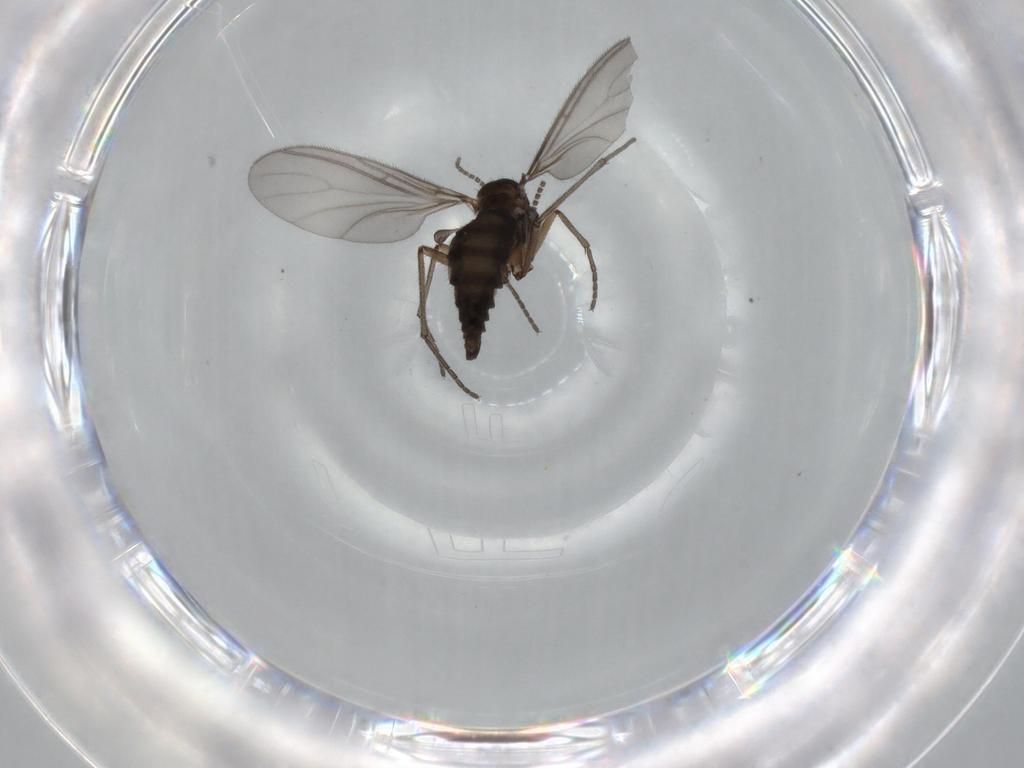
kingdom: Animalia
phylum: Arthropoda
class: Insecta
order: Diptera
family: Sciaridae
